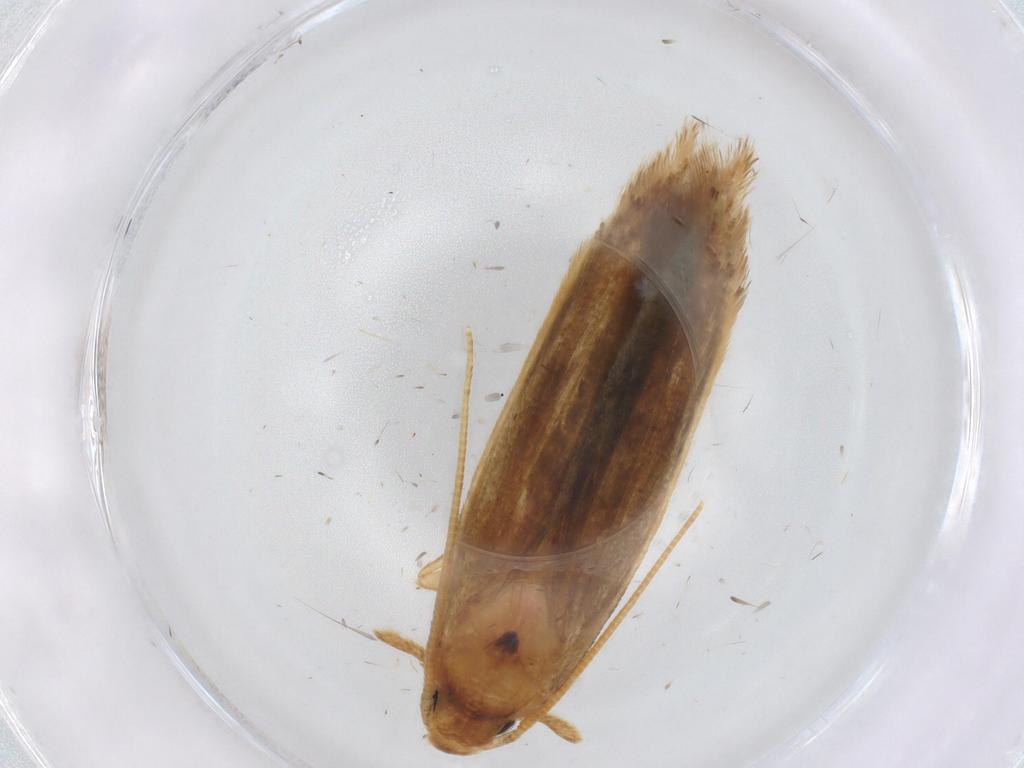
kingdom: Animalia
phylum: Arthropoda
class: Insecta
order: Lepidoptera
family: Tineidae
